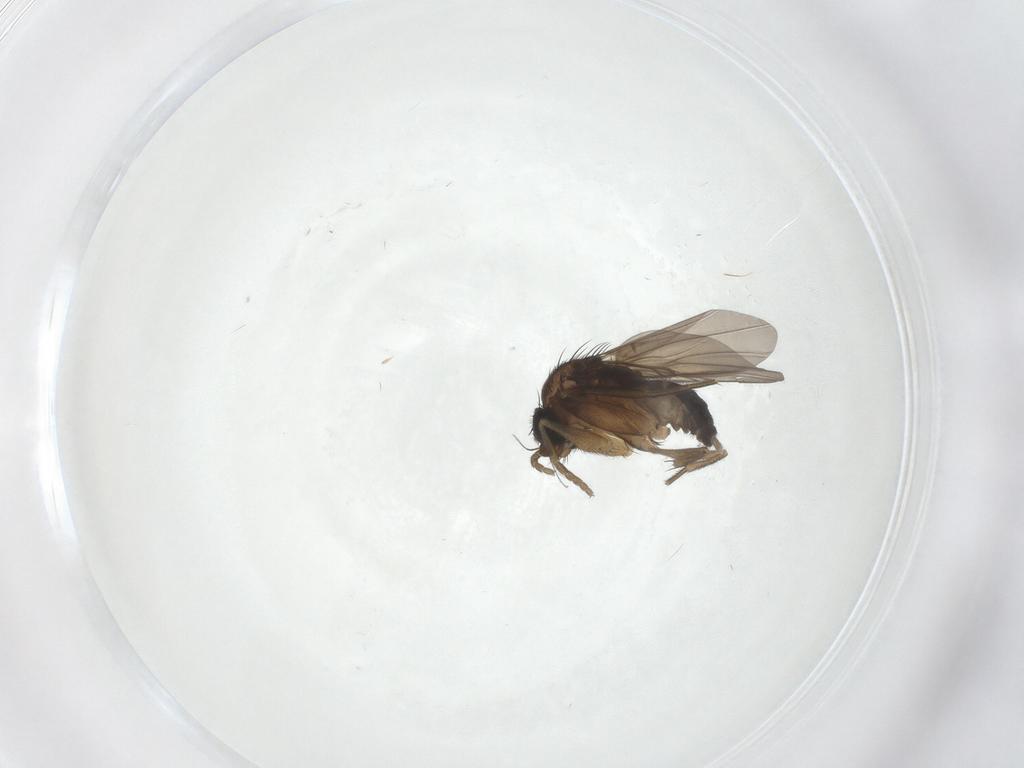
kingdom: Animalia
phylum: Arthropoda
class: Insecta
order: Diptera
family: Phoridae
